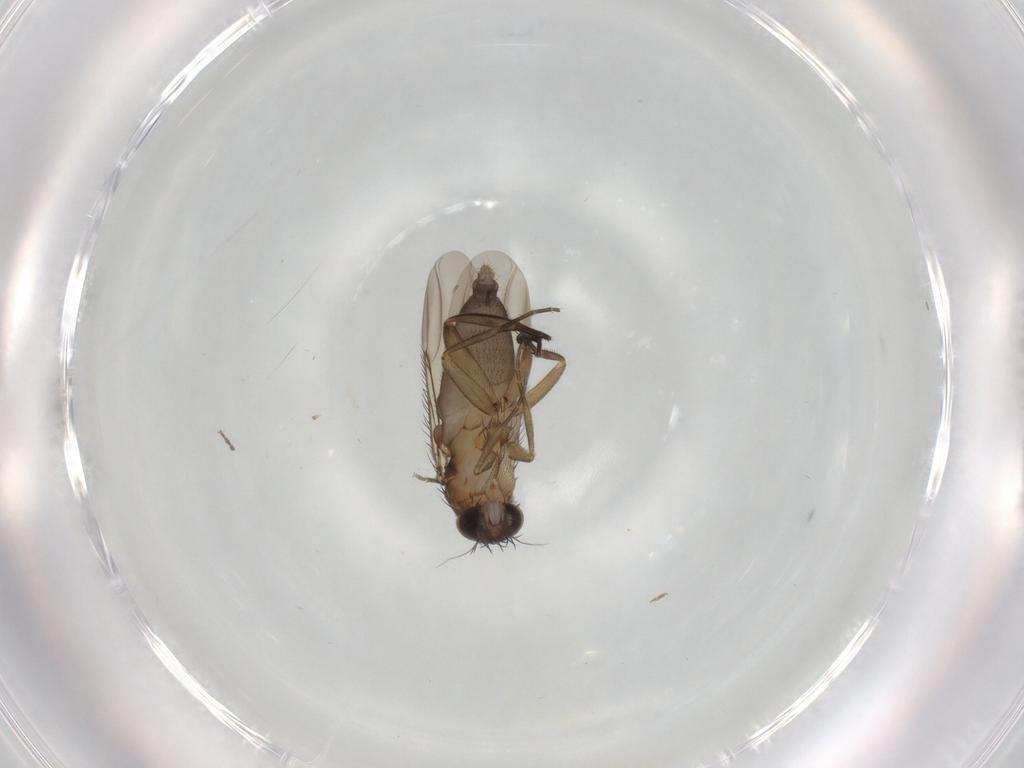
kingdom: Animalia
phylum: Arthropoda
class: Insecta
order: Diptera
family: Phoridae
